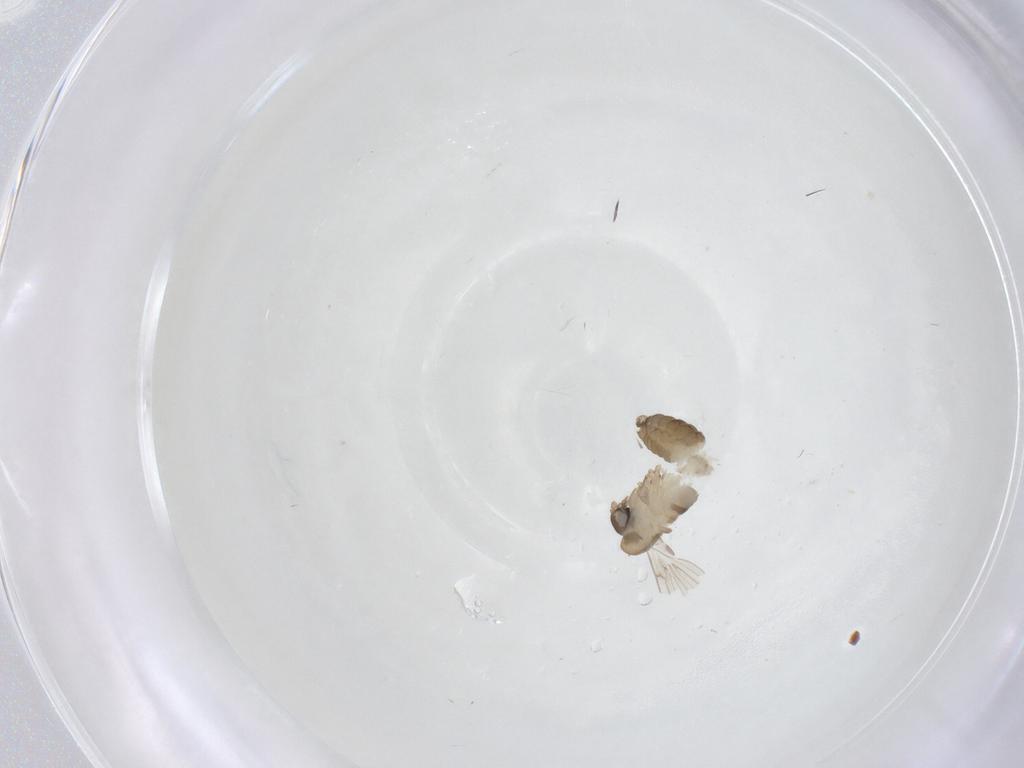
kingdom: Animalia
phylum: Arthropoda
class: Insecta
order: Diptera
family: Psychodidae
